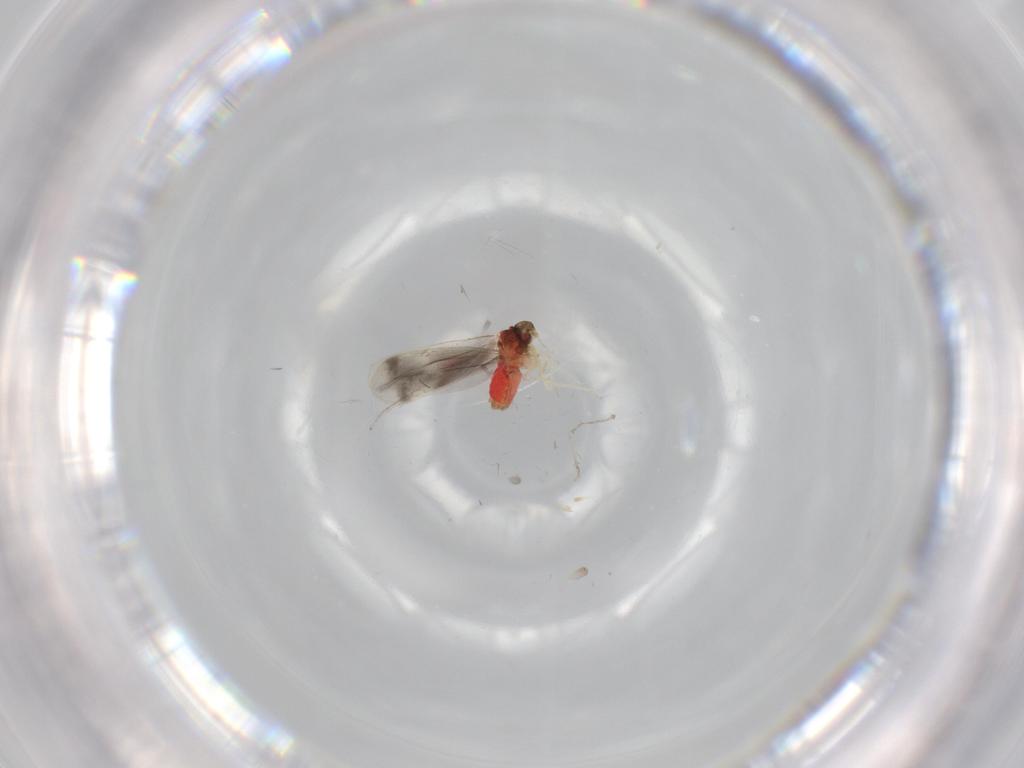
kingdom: Animalia
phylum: Arthropoda
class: Insecta
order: Hemiptera
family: Aleyrodidae
